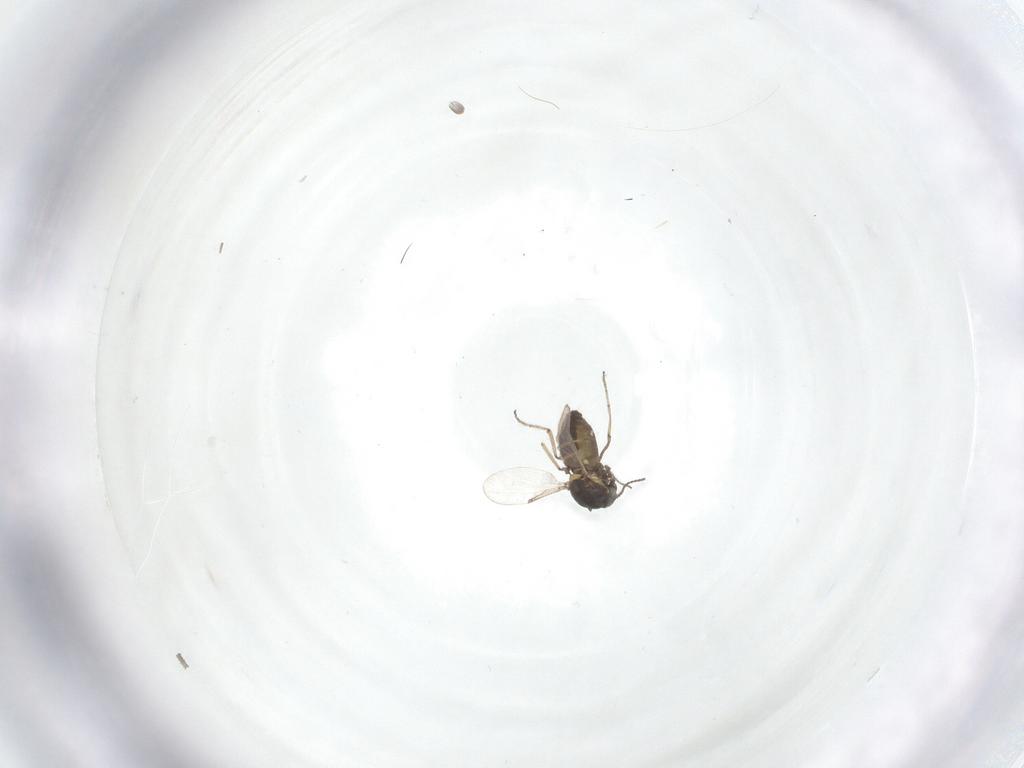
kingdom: Animalia
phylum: Arthropoda
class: Insecta
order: Diptera
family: Ceratopogonidae
